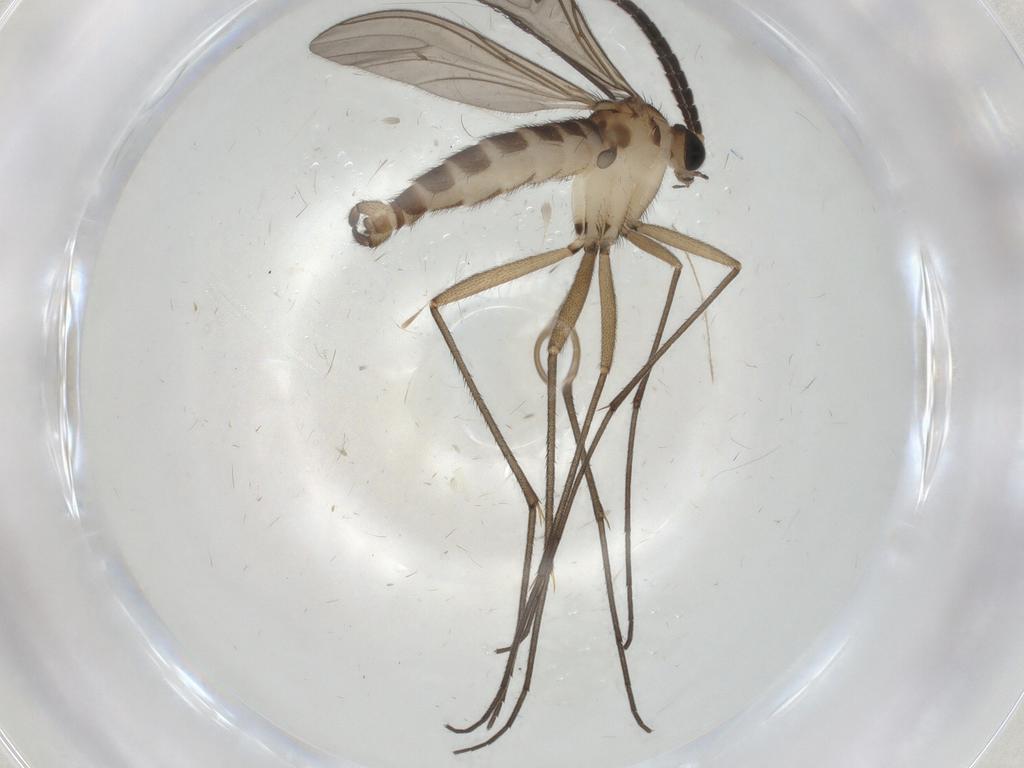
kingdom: Animalia
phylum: Arthropoda
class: Insecta
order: Diptera
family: Sciaridae
